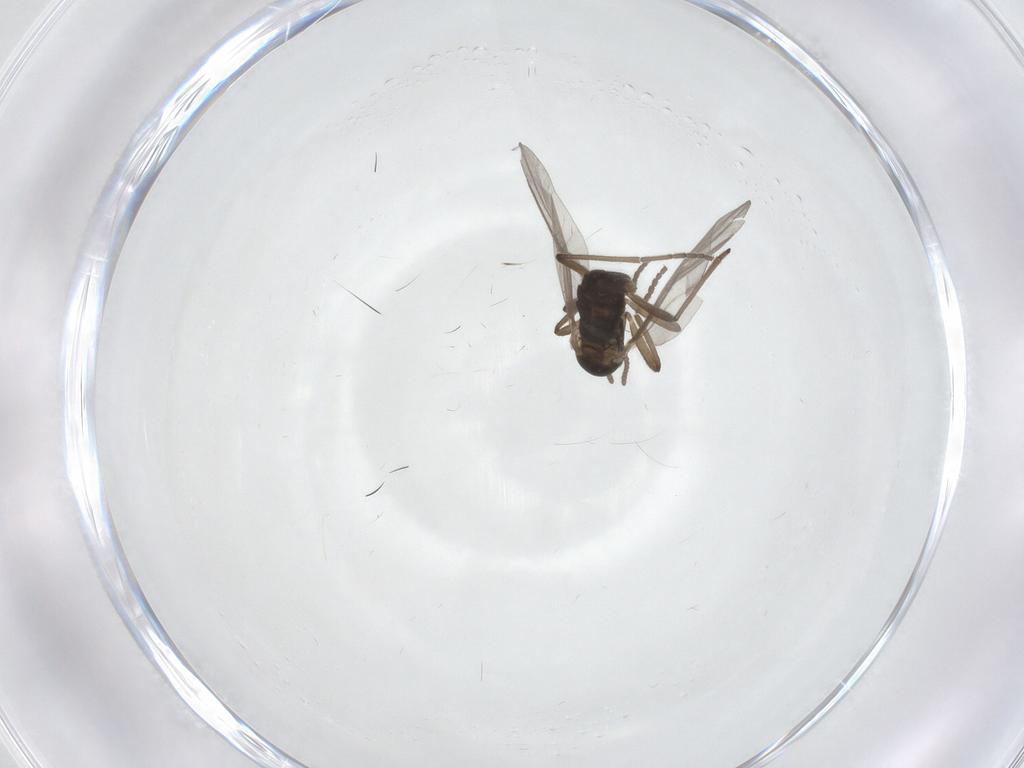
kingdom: Animalia
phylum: Arthropoda
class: Insecta
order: Diptera
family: Cecidomyiidae
